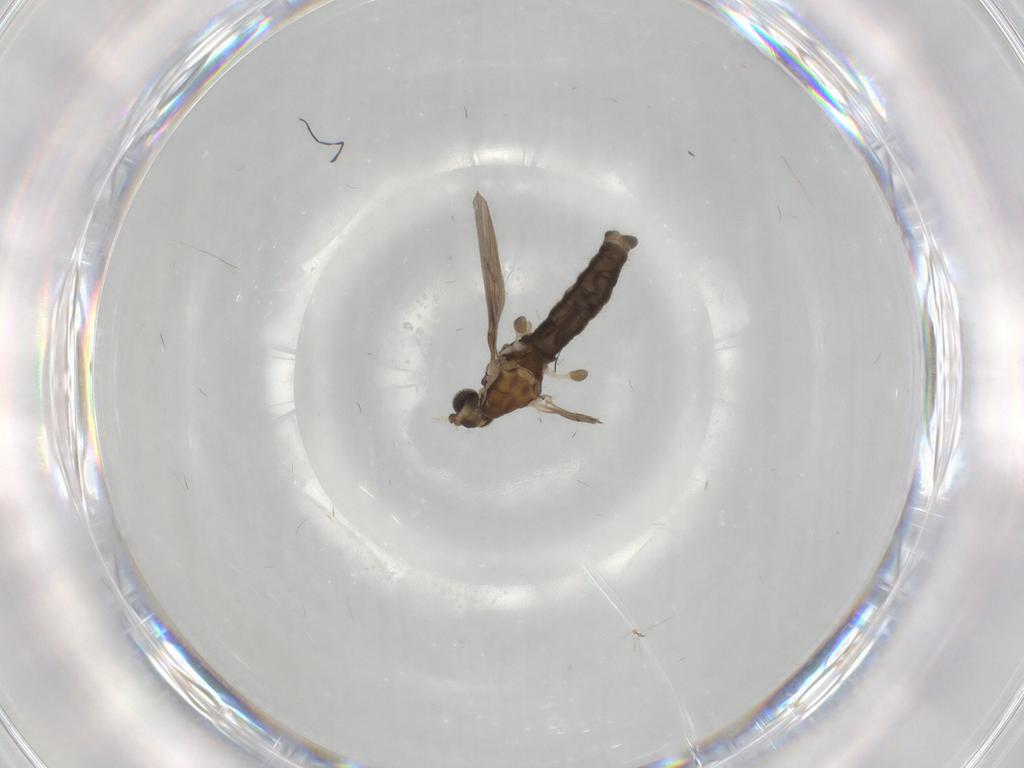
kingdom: Animalia
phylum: Arthropoda
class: Insecta
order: Diptera
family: Limoniidae
